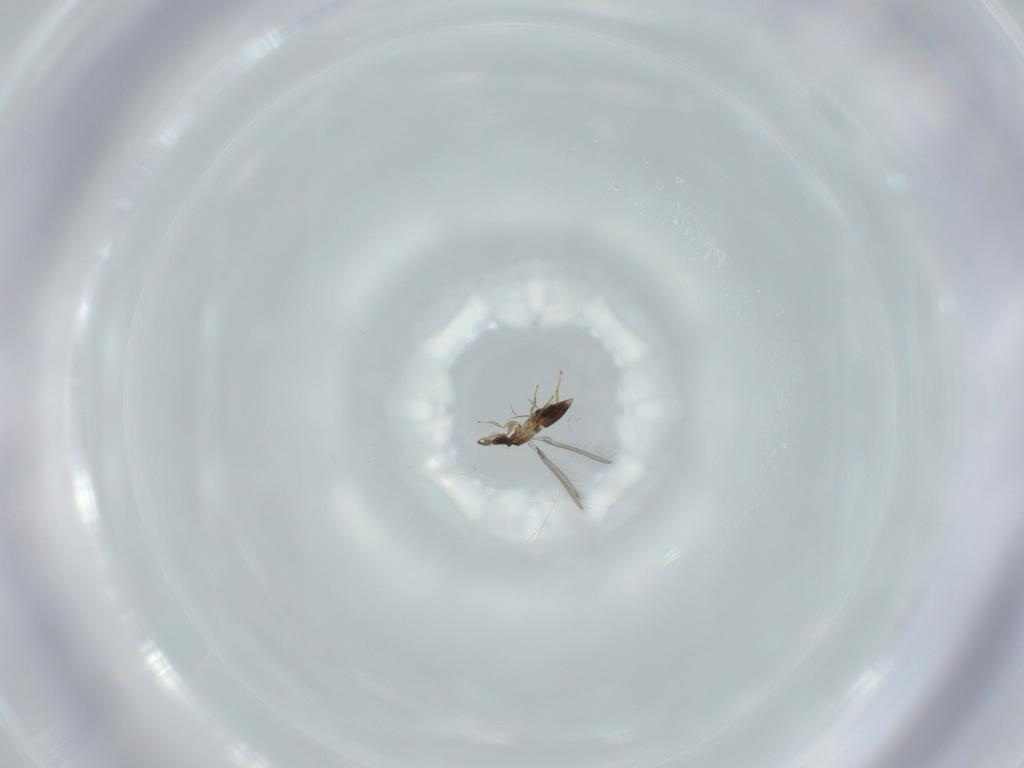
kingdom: Animalia
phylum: Arthropoda
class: Insecta
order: Hymenoptera
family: Mymaridae
